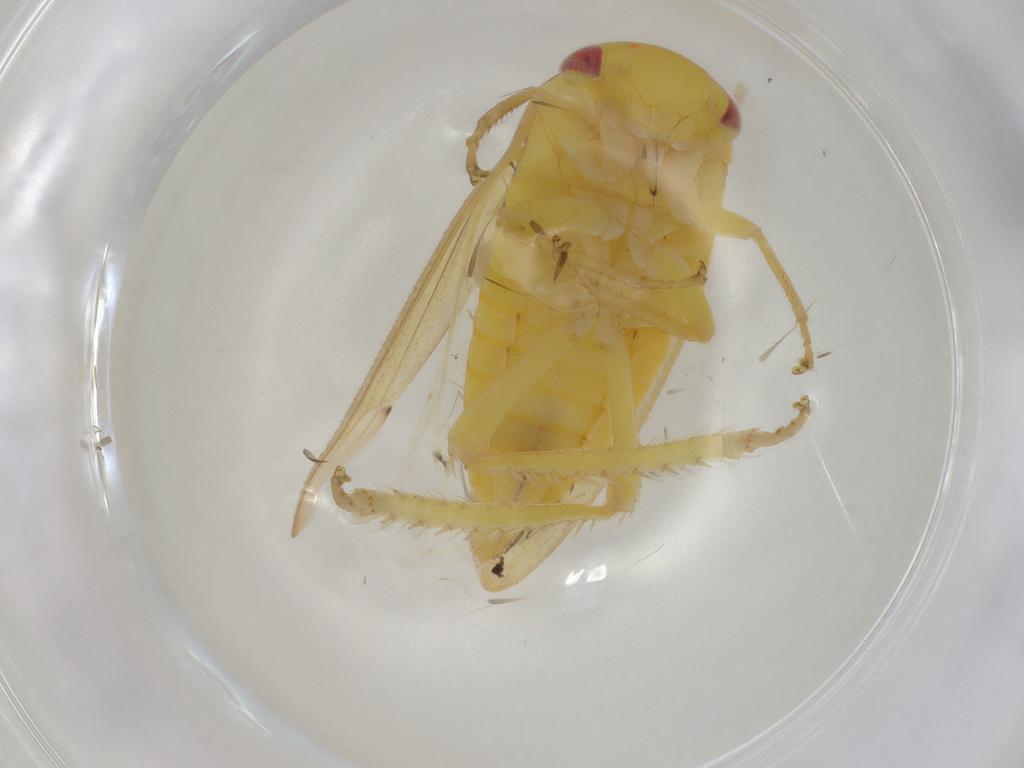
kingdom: Animalia
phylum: Arthropoda
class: Insecta
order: Hemiptera
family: Cicadellidae
